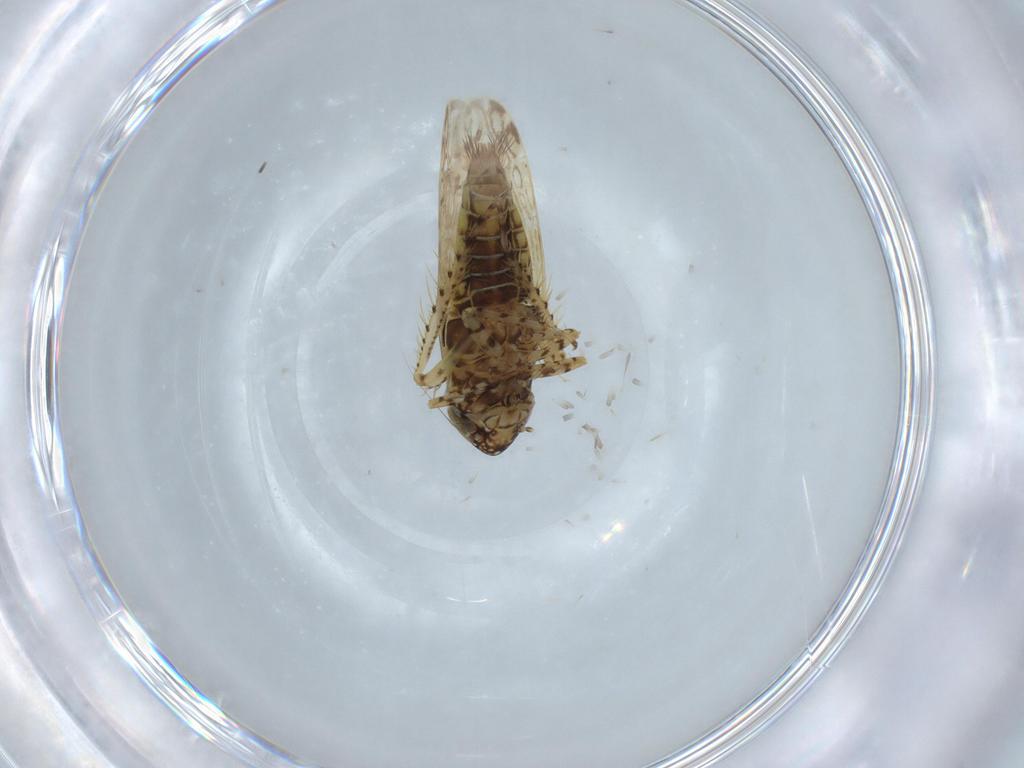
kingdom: Animalia
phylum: Arthropoda
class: Insecta
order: Hemiptera
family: Cicadellidae
